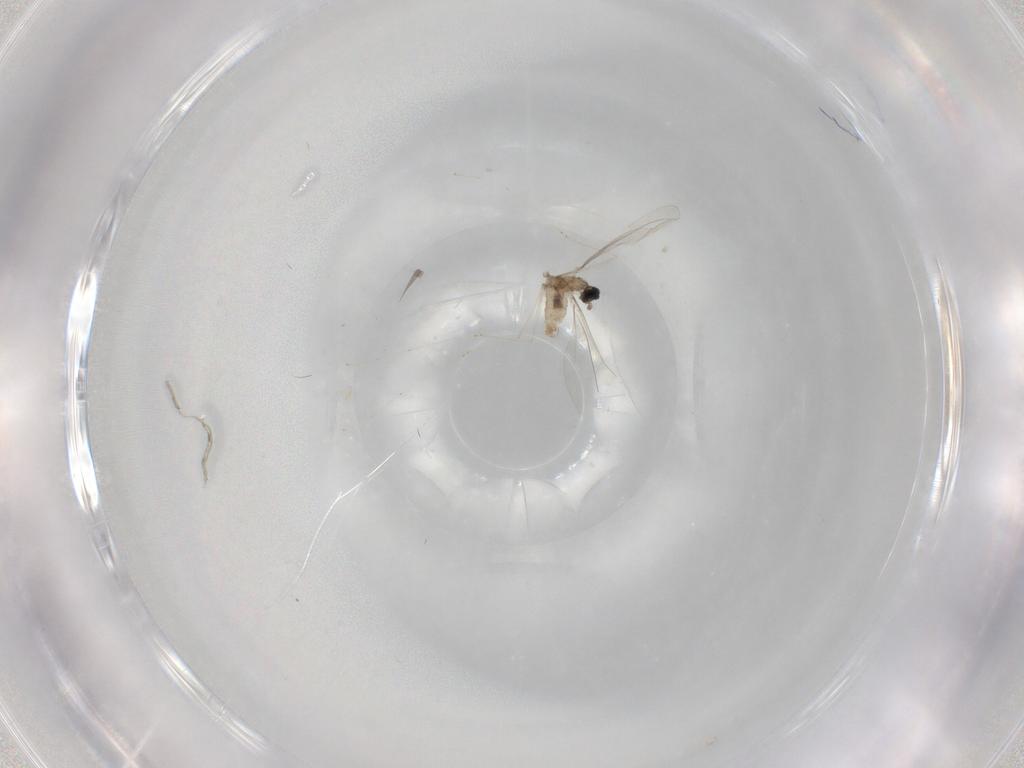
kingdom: Animalia
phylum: Arthropoda
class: Insecta
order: Diptera
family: Cecidomyiidae
